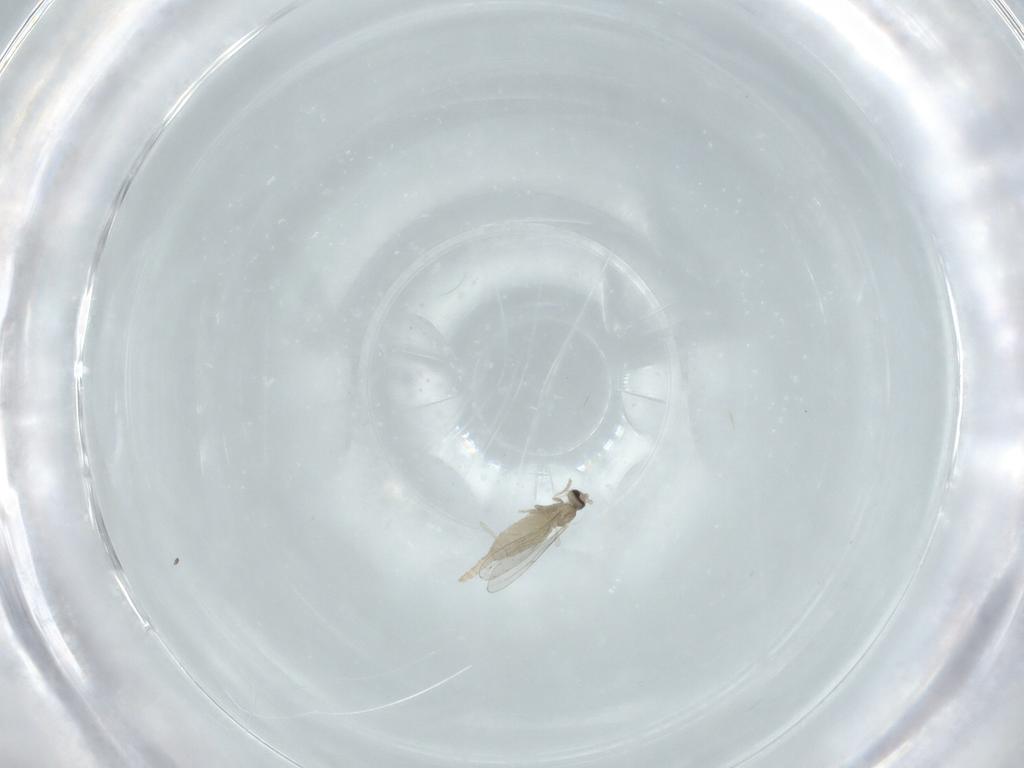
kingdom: Animalia
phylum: Arthropoda
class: Insecta
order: Diptera
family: Cecidomyiidae
